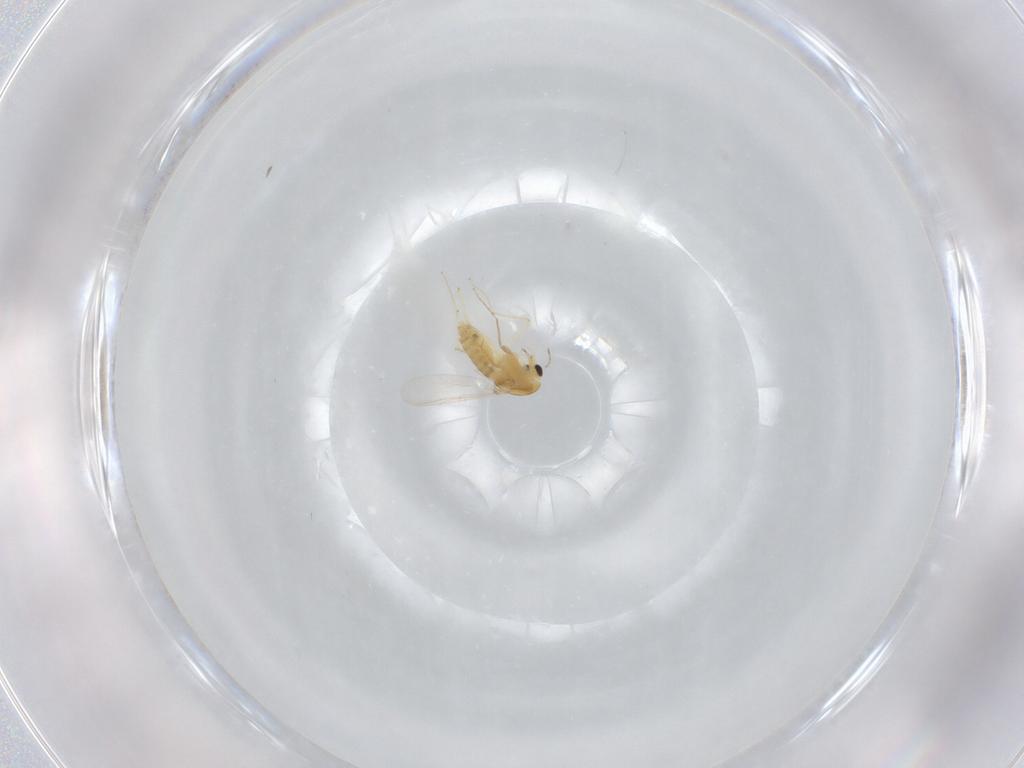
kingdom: Animalia
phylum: Arthropoda
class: Insecta
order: Diptera
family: Chironomidae
